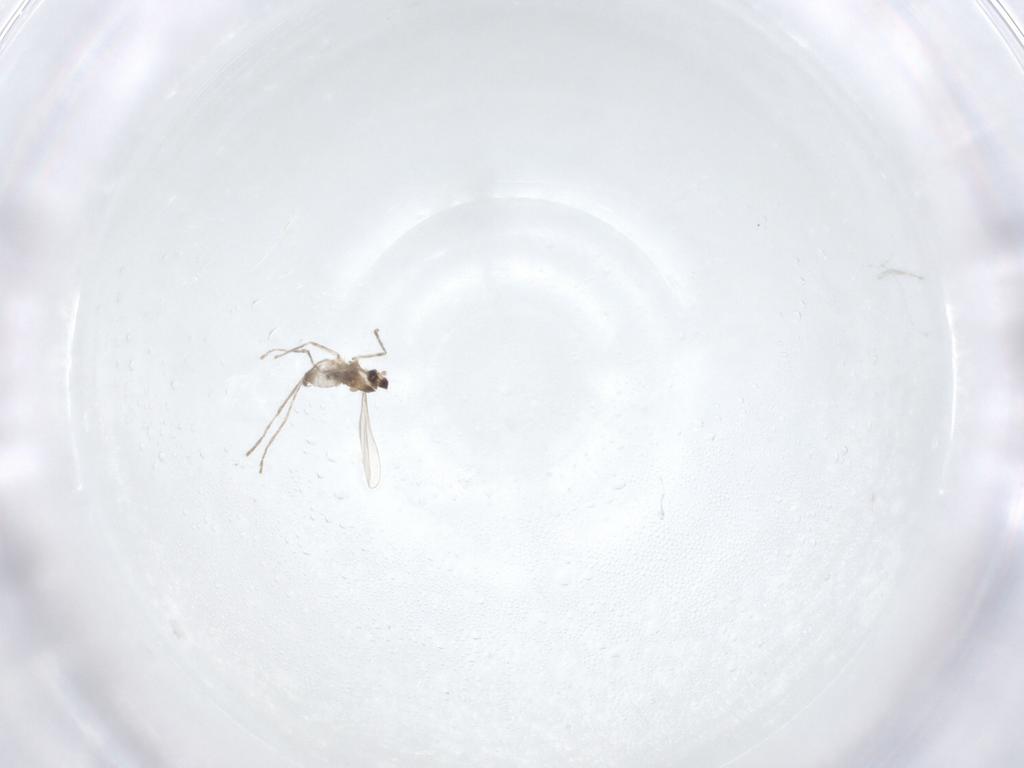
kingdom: Animalia
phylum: Arthropoda
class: Insecta
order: Diptera
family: Cecidomyiidae
